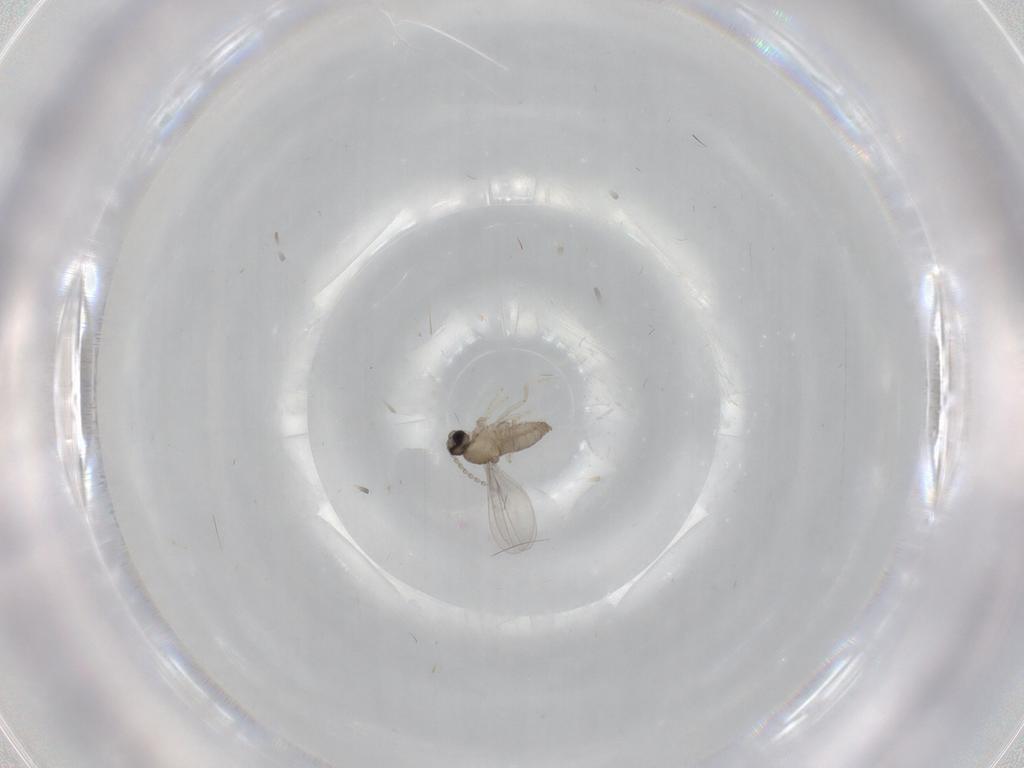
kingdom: Animalia
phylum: Arthropoda
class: Insecta
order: Diptera
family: Cecidomyiidae
